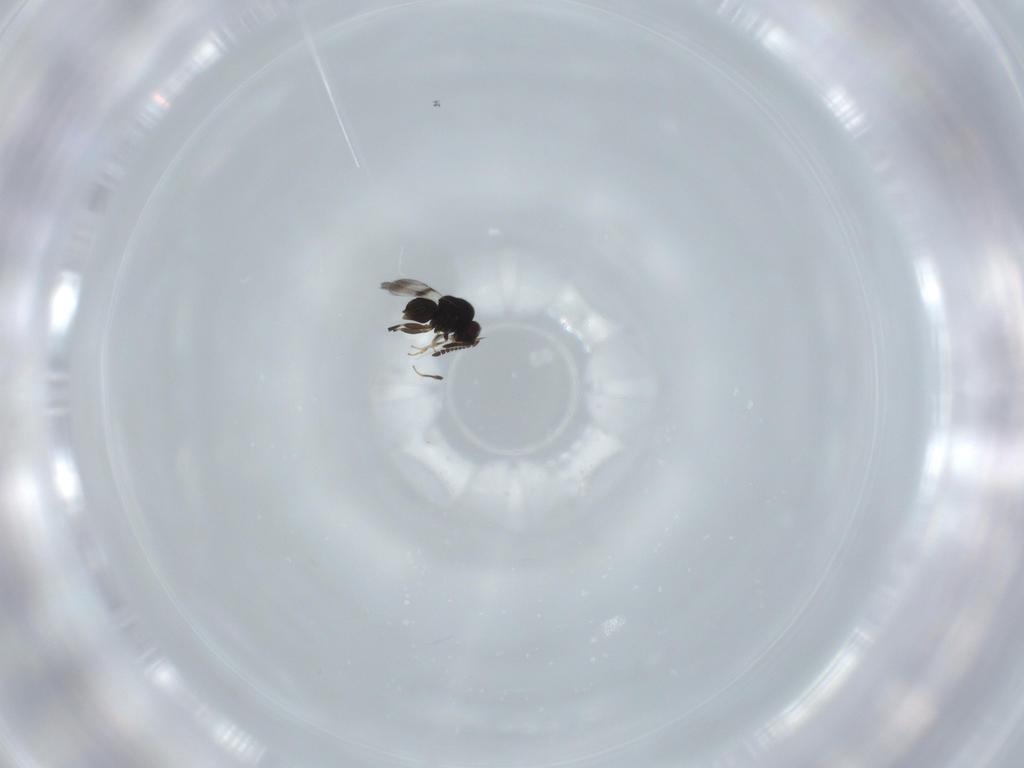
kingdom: Animalia
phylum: Arthropoda
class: Insecta
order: Hymenoptera
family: Ceraphronidae
